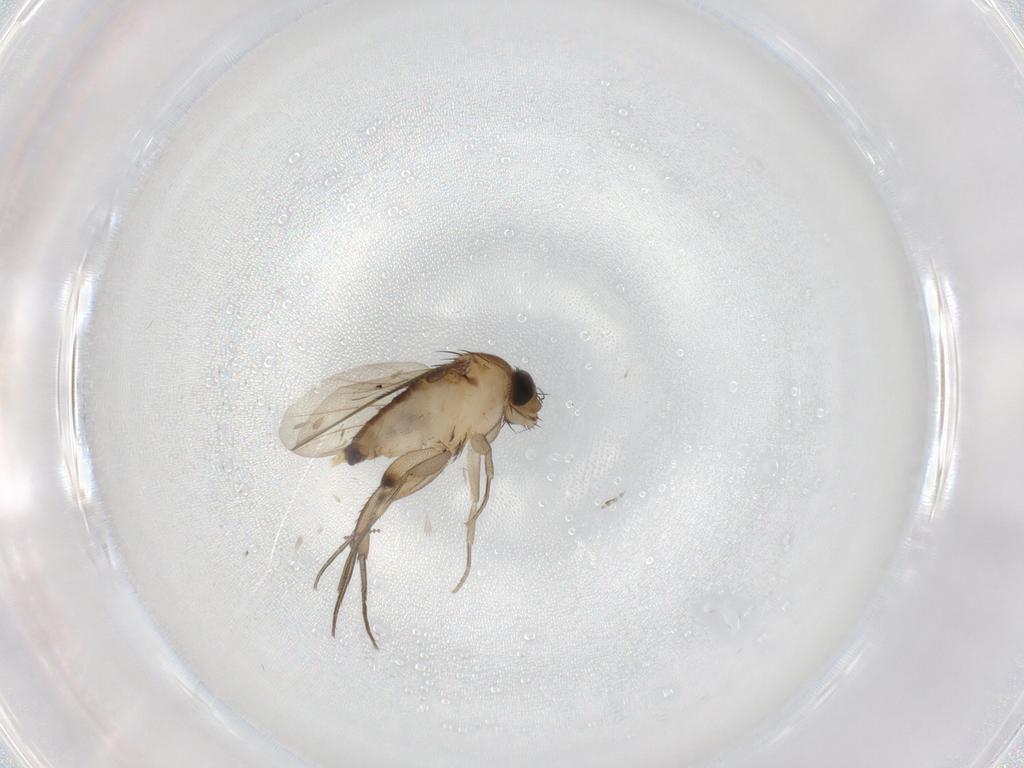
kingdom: Animalia
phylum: Arthropoda
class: Insecta
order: Diptera
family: Phoridae
